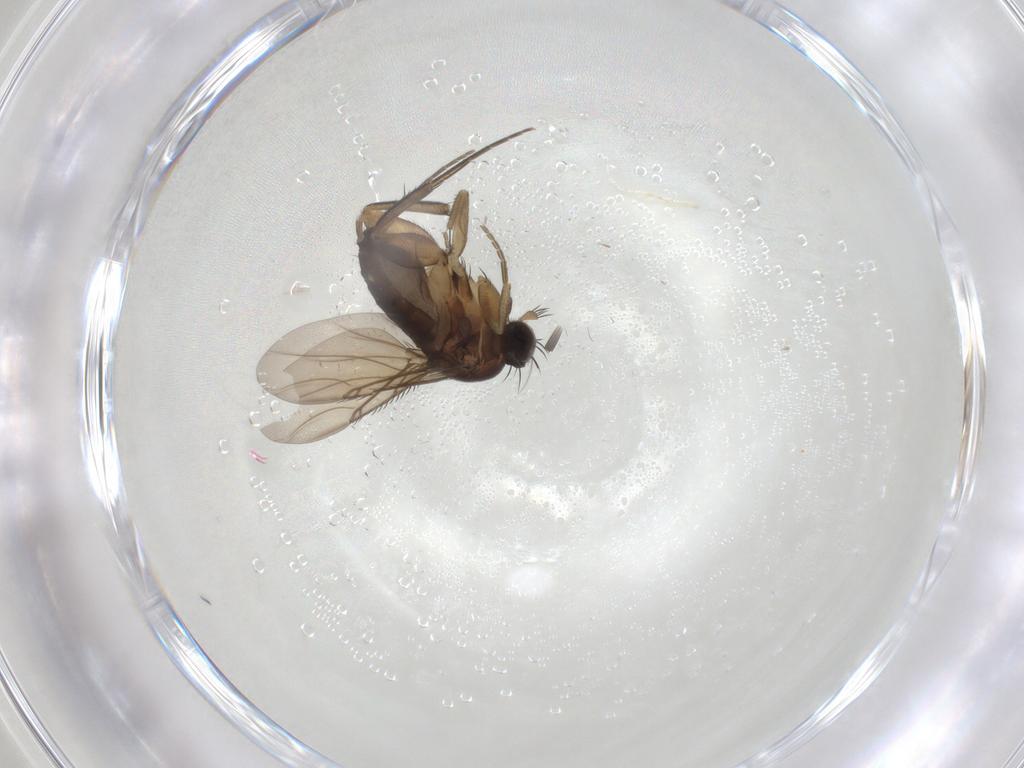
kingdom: Animalia
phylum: Arthropoda
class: Insecta
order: Diptera
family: Phoridae
